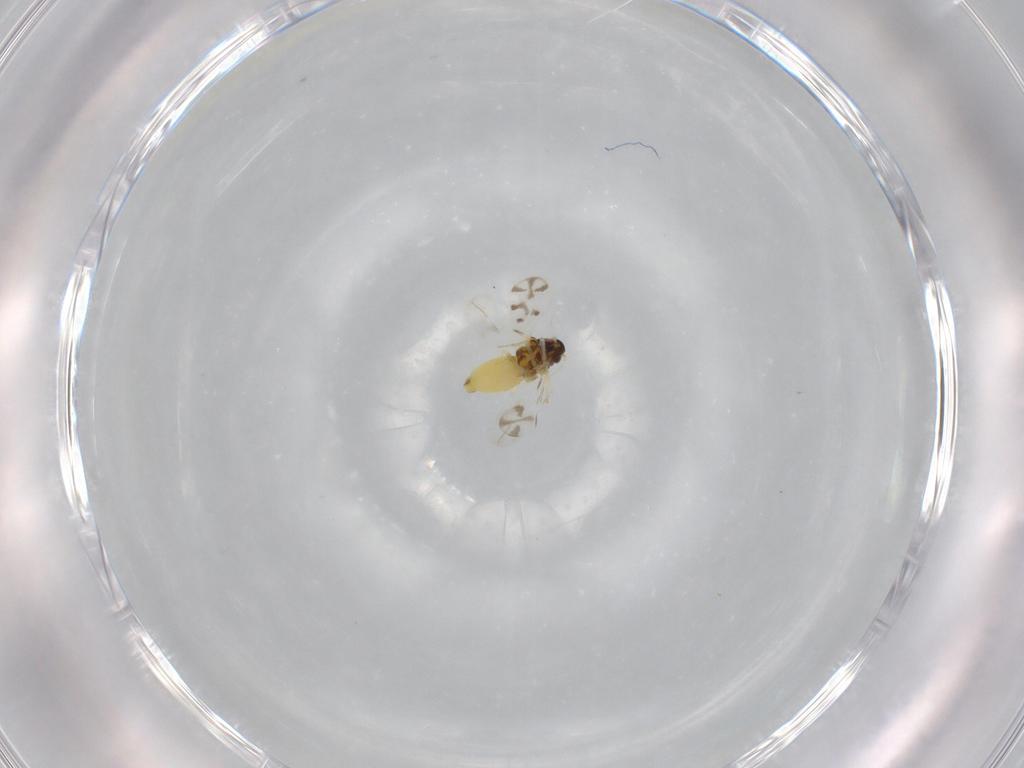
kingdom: Animalia
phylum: Arthropoda
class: Insecta
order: Hemiptera
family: Aleyrodidae
